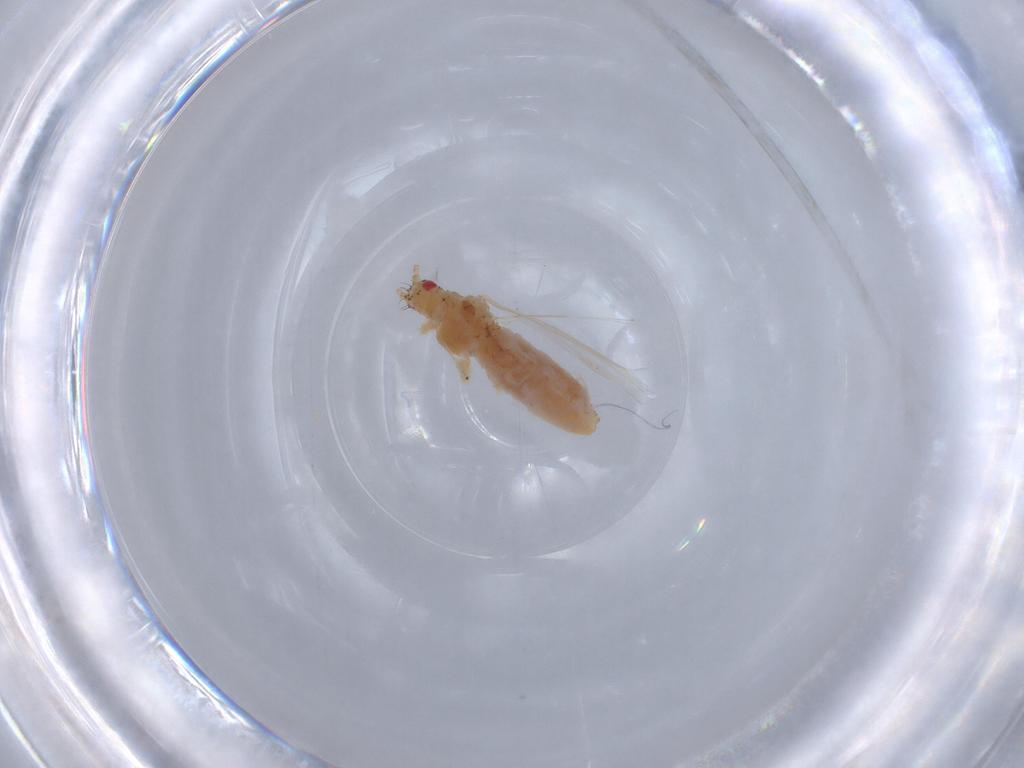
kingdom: Animalia
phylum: Arthropoda
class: Insecta
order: Hemiptera
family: Aphididae
